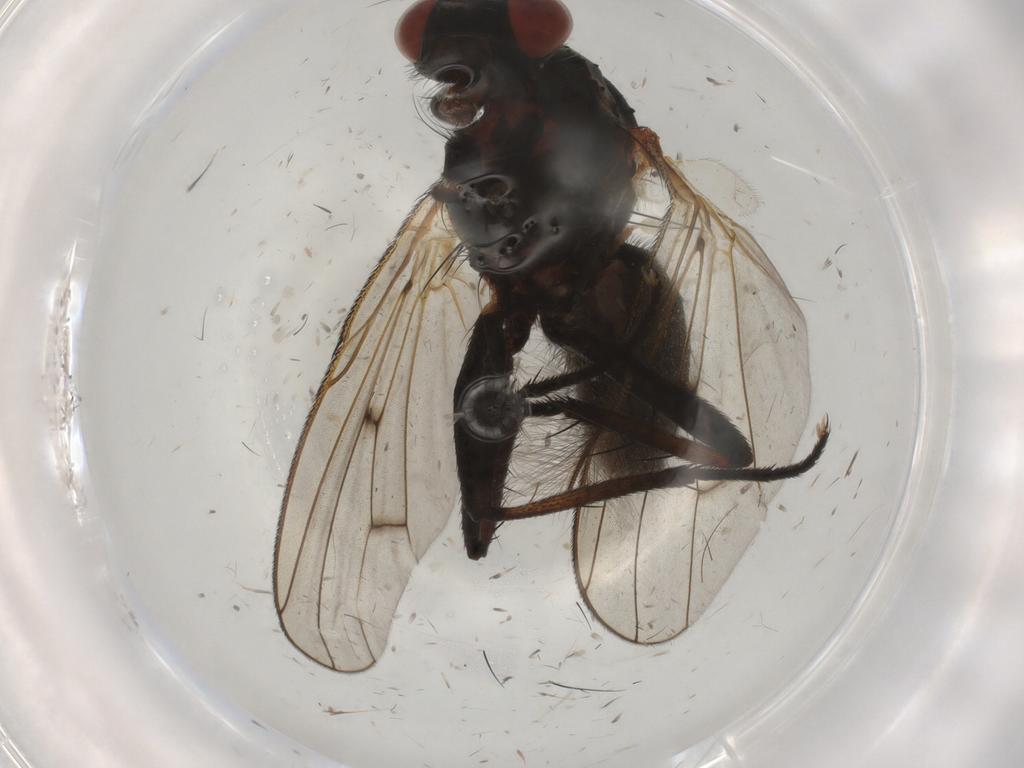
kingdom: Animalia
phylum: Arthropoda
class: Insecta
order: Diptera
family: Anthomyiidae
